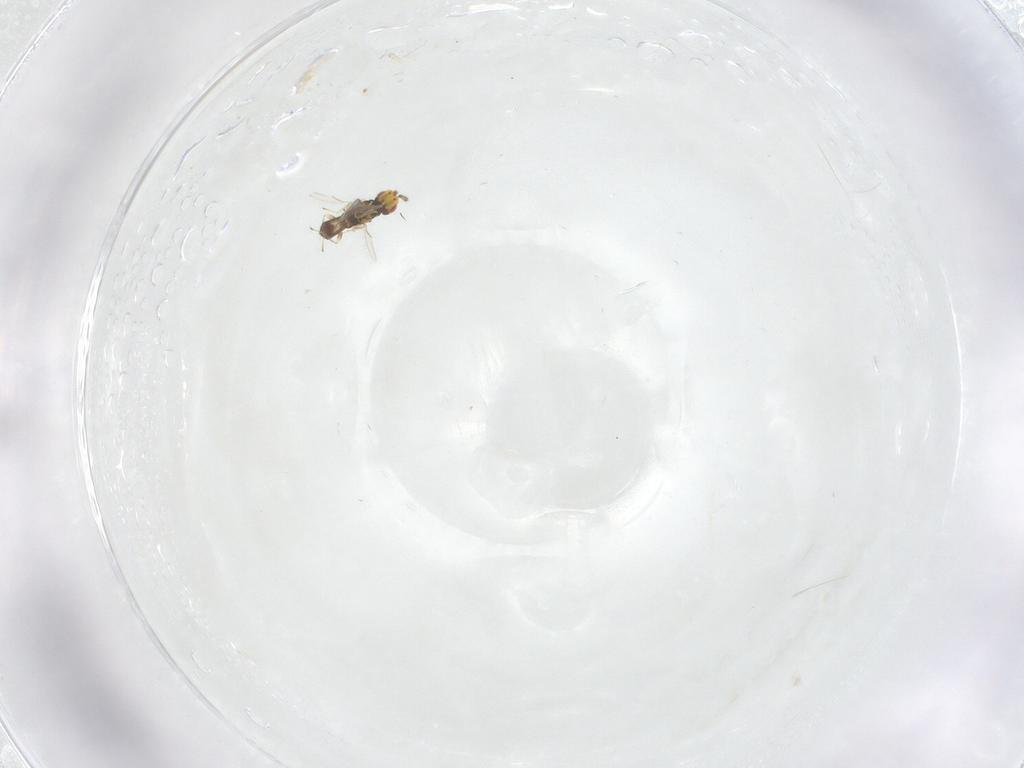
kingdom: Animalia
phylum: Arthropoda
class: Insecta
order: Hymenoptera
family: Eulophidae
